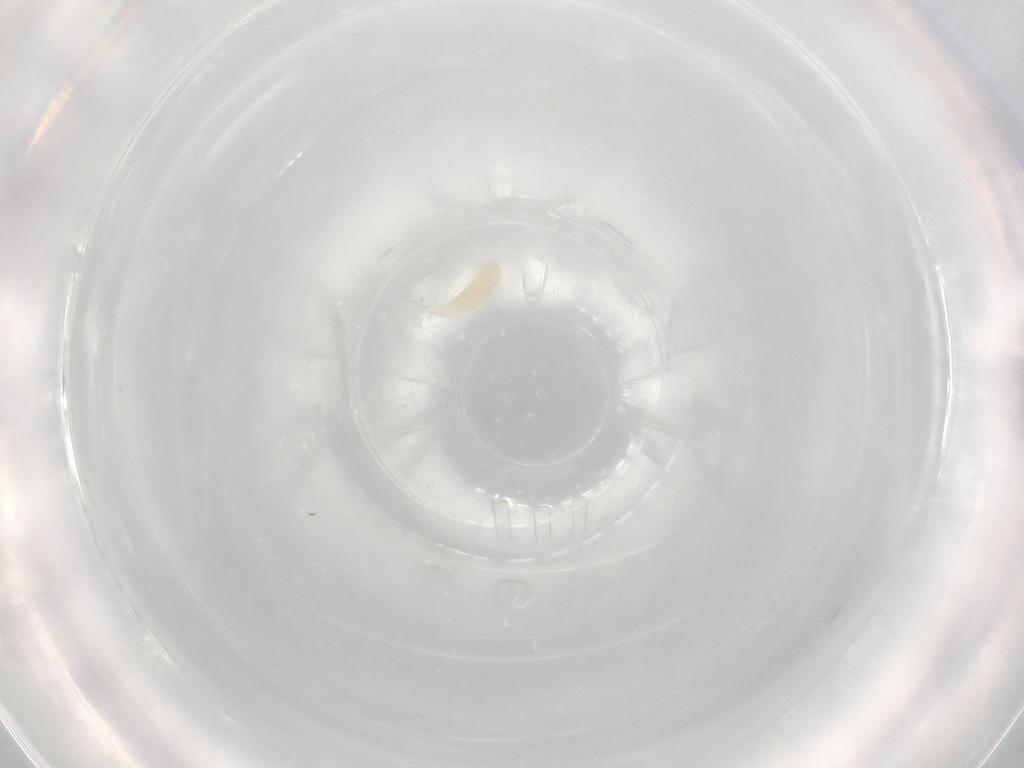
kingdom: Animalia
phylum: Arthropoda
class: Insecta
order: Hymenoptera
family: Ichneumonidae
